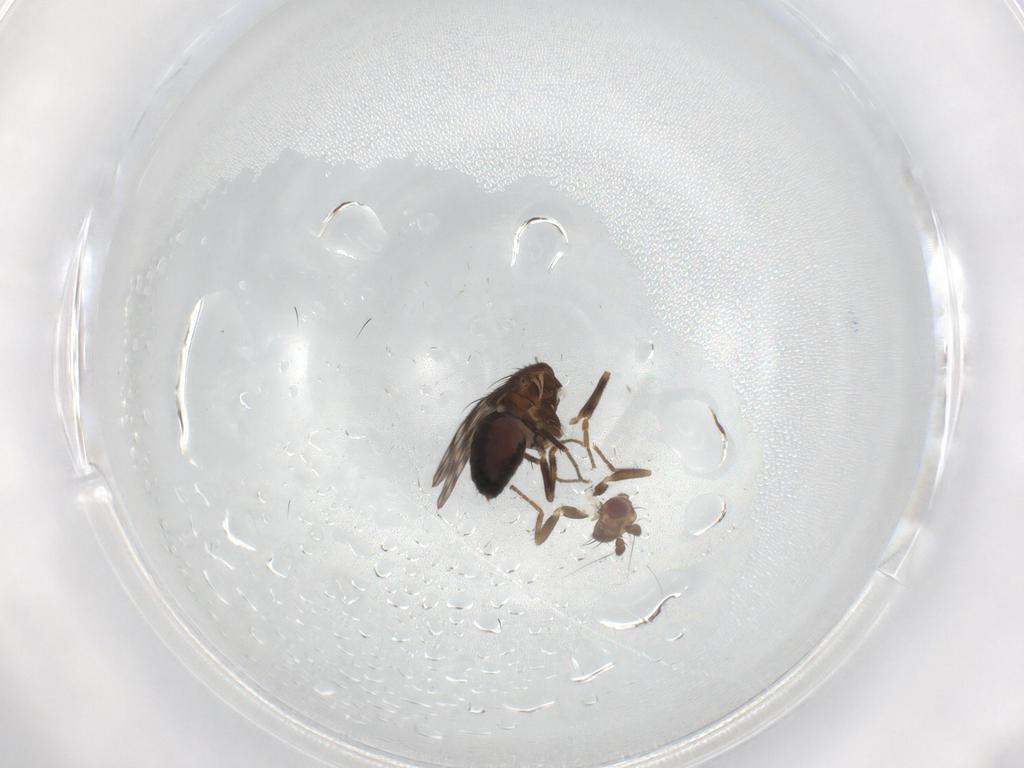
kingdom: Animalia
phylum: Arthropoda
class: Insecta
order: Diptera
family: Sphaeroceridae
